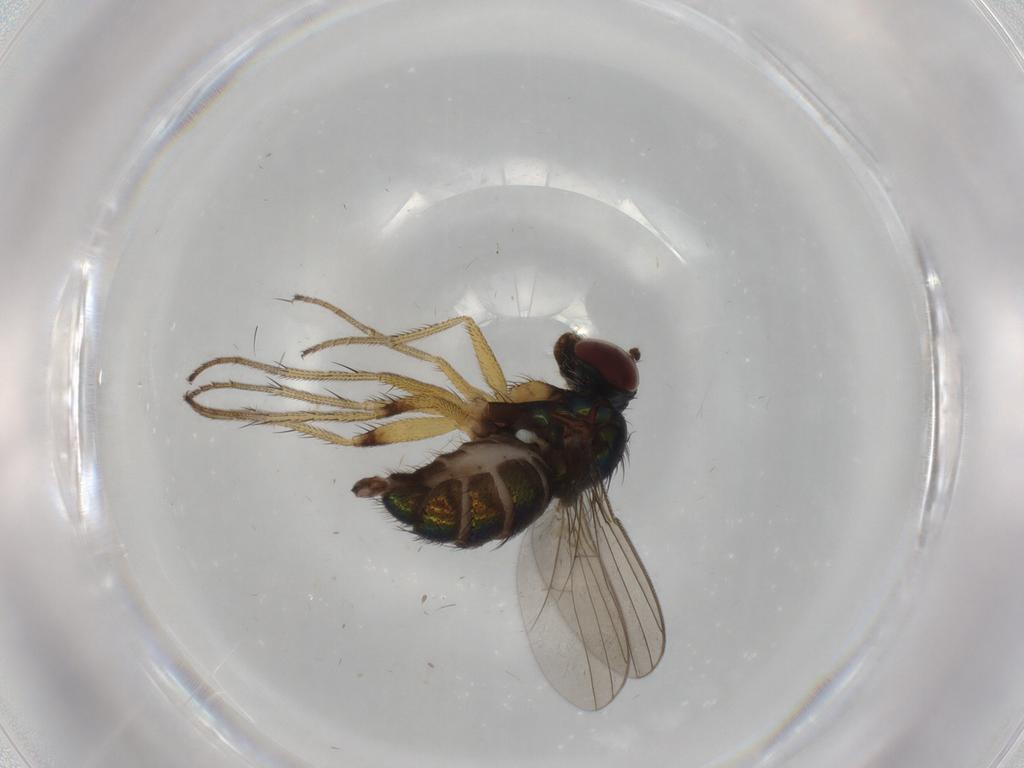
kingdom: Animalia
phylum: Arthropoda
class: Insecta
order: Diptera
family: Dolichopodidae
